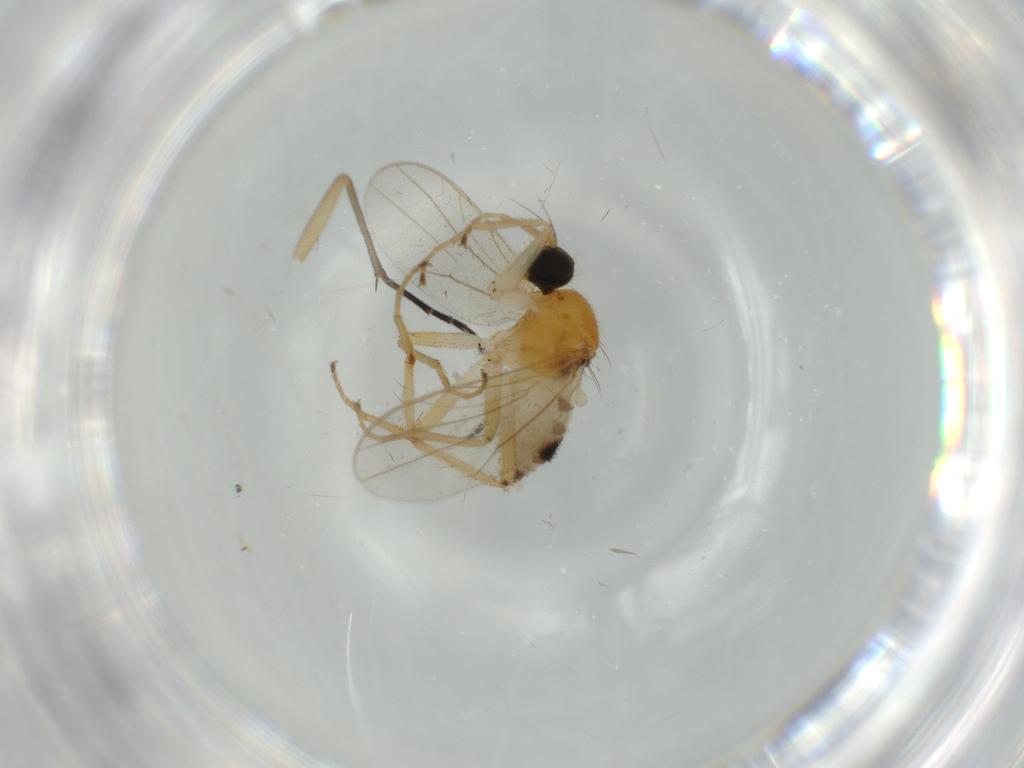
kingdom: Animalia
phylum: Arthropoda
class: Insecta
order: Diptera
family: Hybotidae
